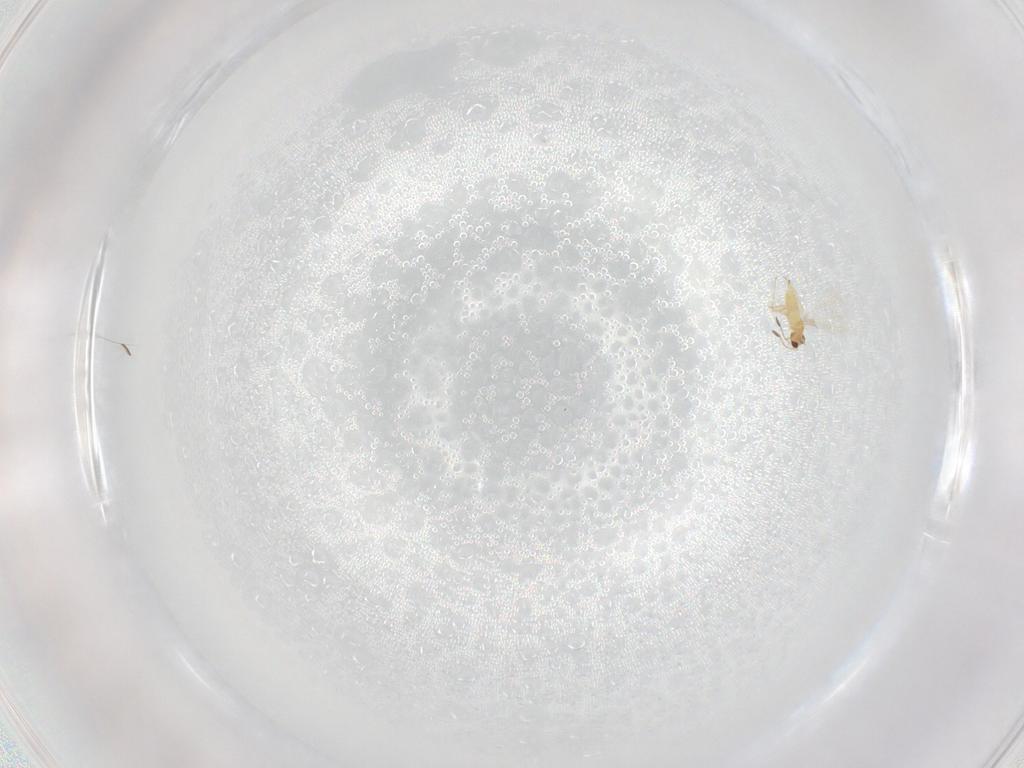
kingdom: Animalia
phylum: Arthropoda
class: Insecta
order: Hymenoptera
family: Mymaridae
